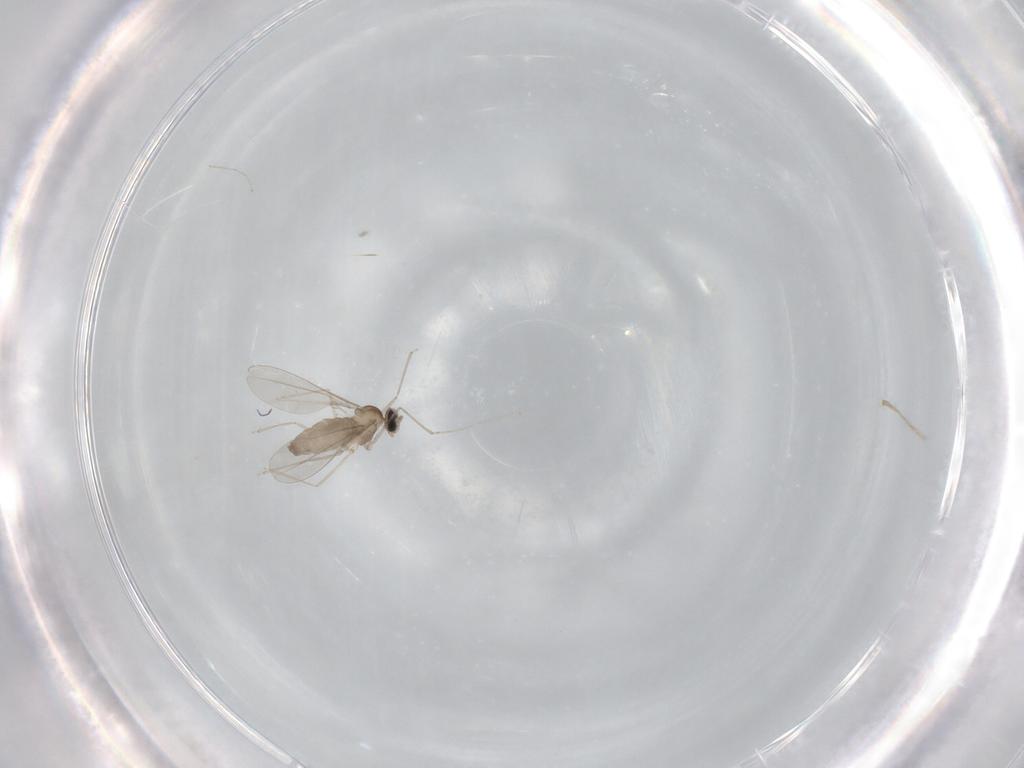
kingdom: Animalia
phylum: Arthropoda
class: Insecta
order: Diptera
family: Cecidomyiidae
